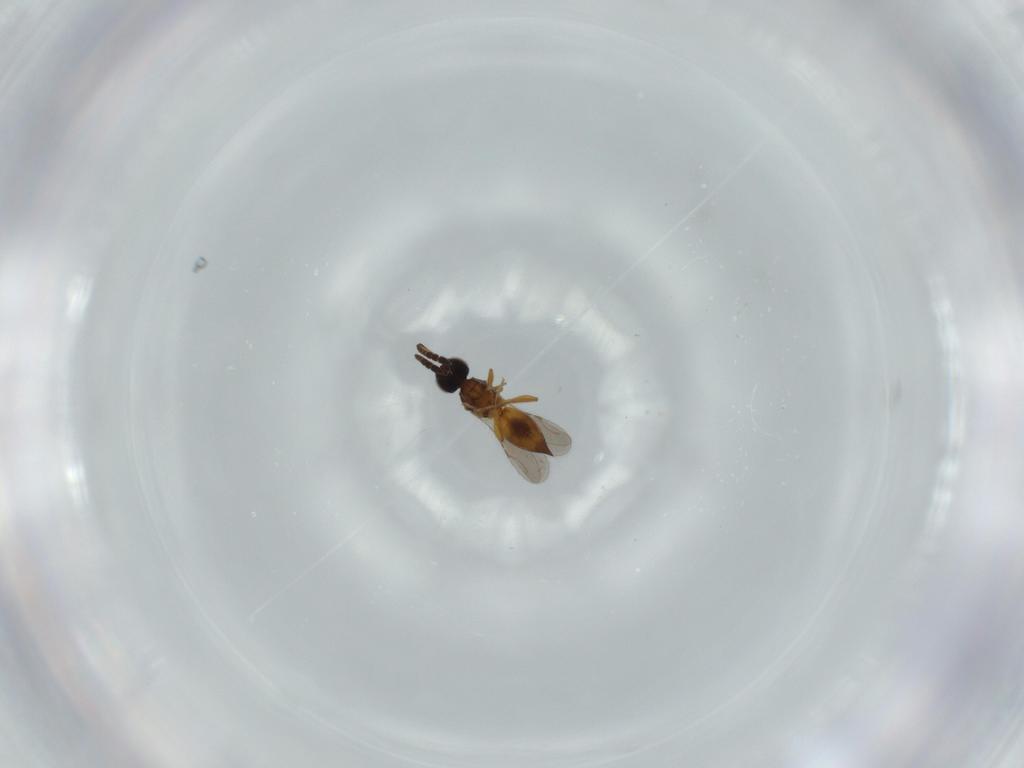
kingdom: Animalia
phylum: Arthropoda
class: Insecta
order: Hymenoptera
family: Ceraphronidae
